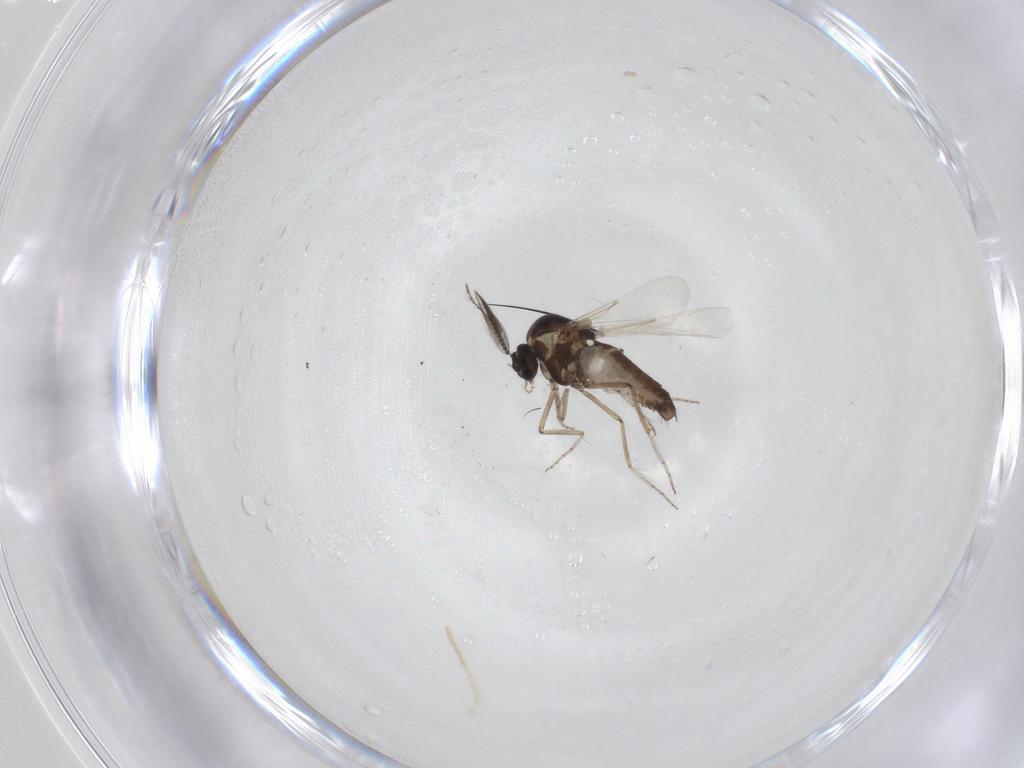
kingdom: Animalia
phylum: Arthropoda
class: Insecta
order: Diptera
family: Ceratopogonidae
